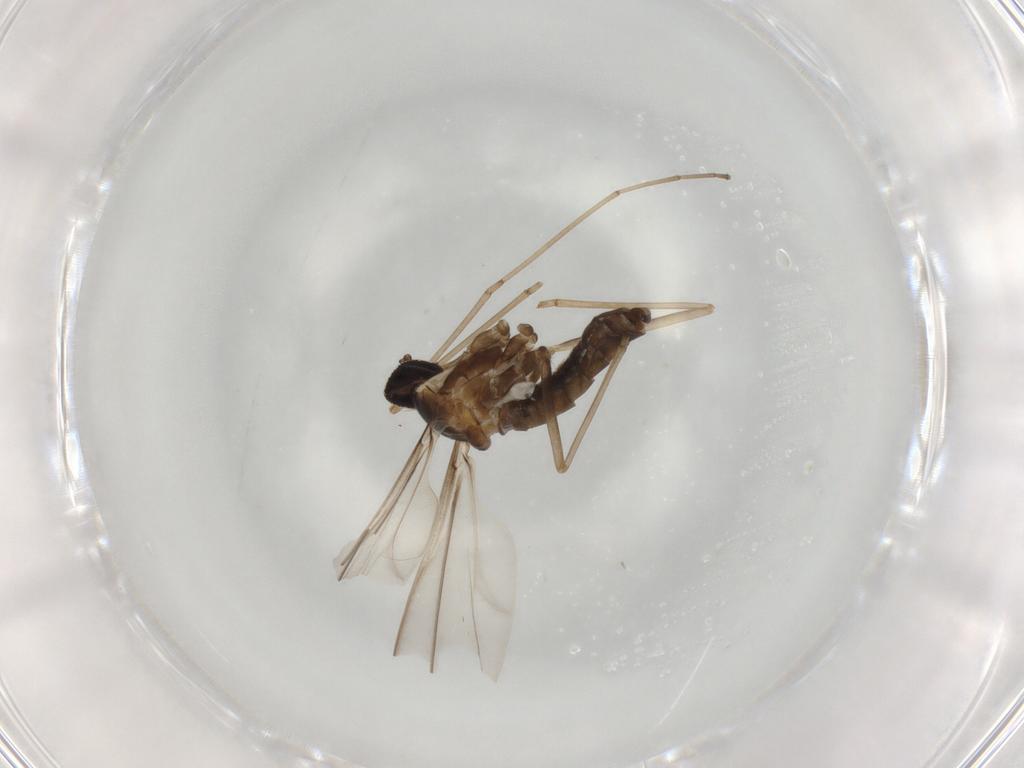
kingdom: Animalia
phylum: Arthropoda
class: Insecta
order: Diptera
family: Cecidomyiidae
